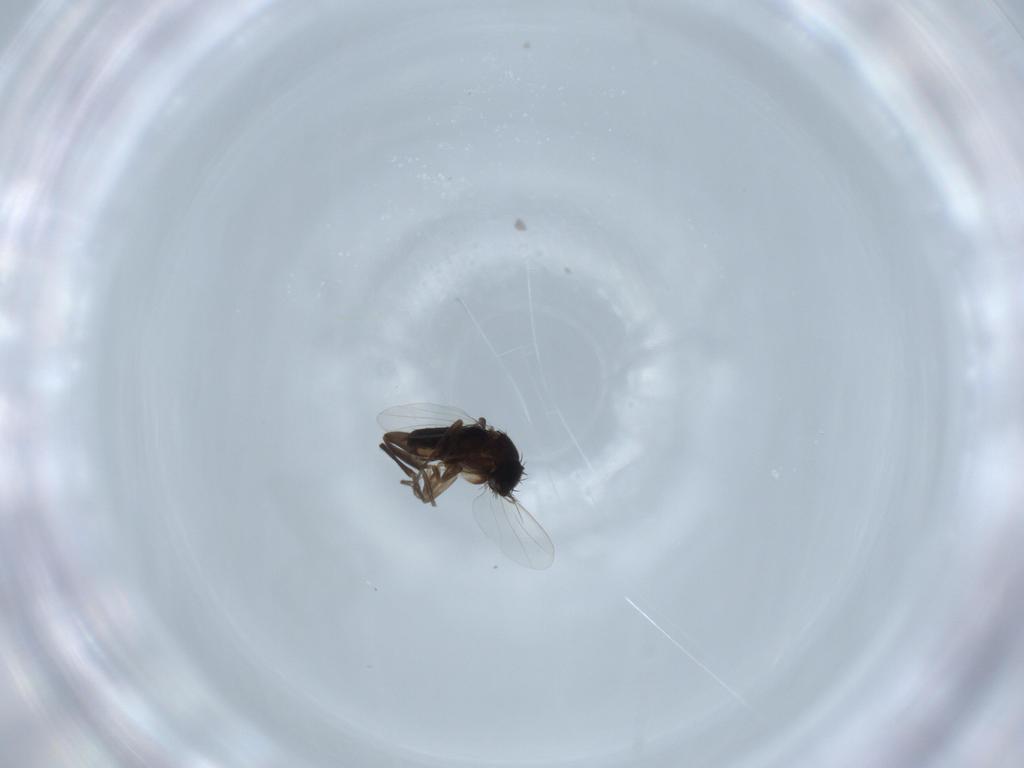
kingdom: Animalia
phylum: Arthropoda
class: Insecta
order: Diptera
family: Phoridae
